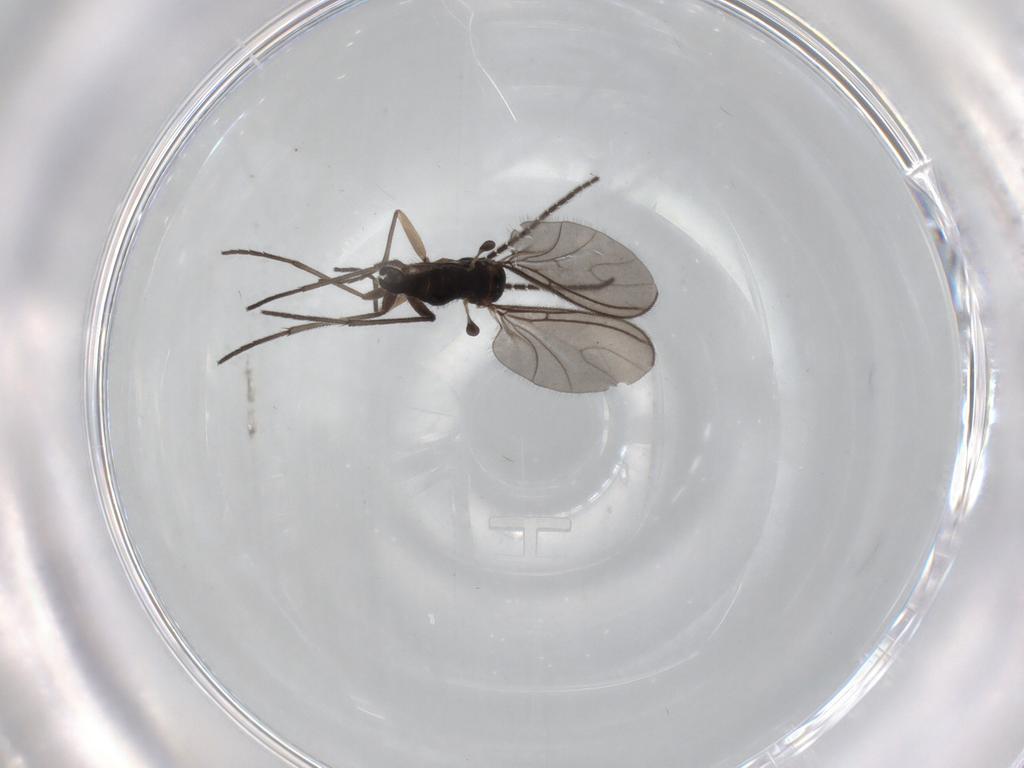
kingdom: Animalia
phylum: Arthropoda
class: Insecta
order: Diptera
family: Sciaridae
